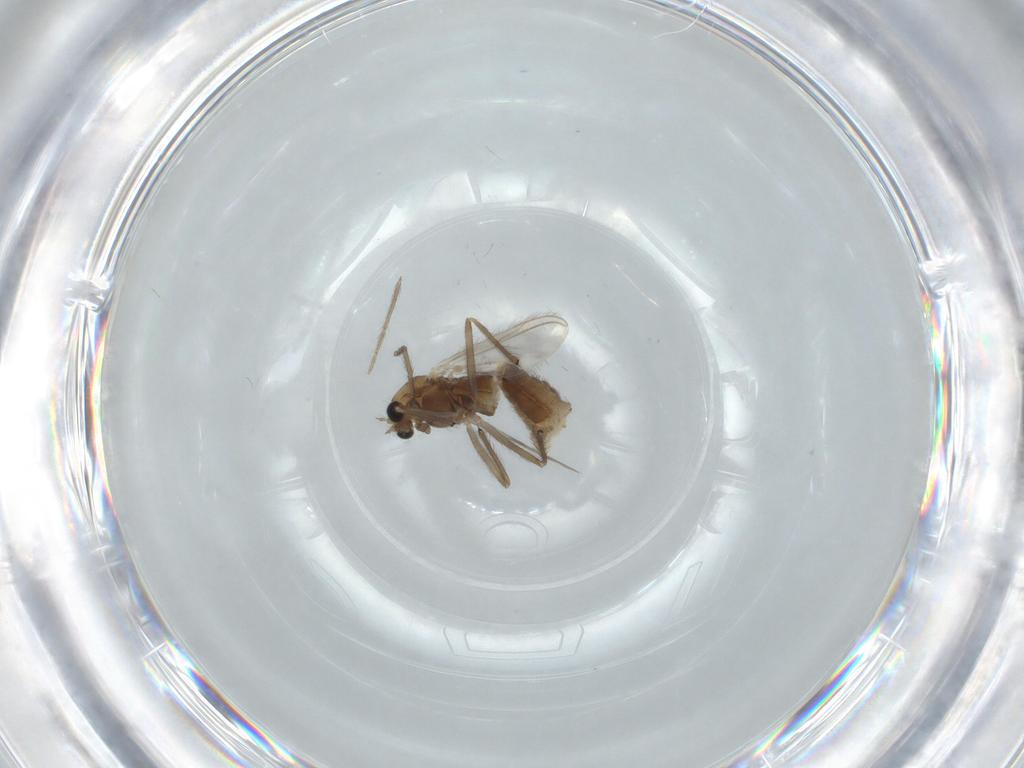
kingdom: Animalia
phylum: Arthropoda
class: Insecta
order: Diptera
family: Chironomidae
